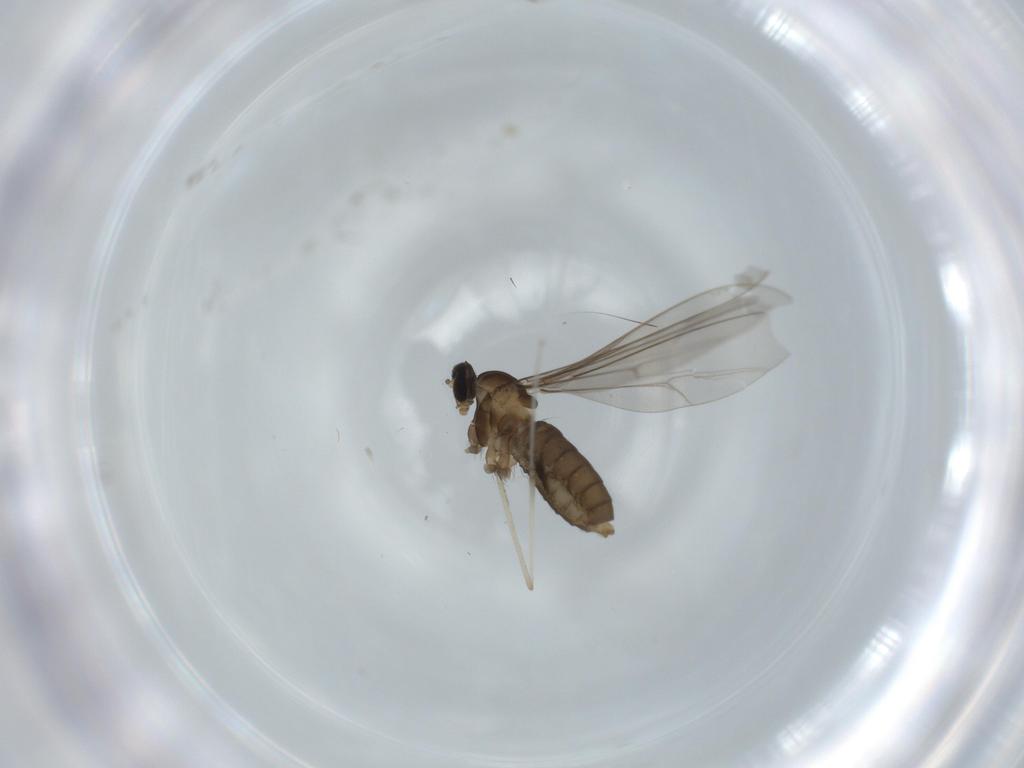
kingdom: Animalia
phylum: Arthropoda
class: Insecta
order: Diptera
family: Cecidomyiidae
